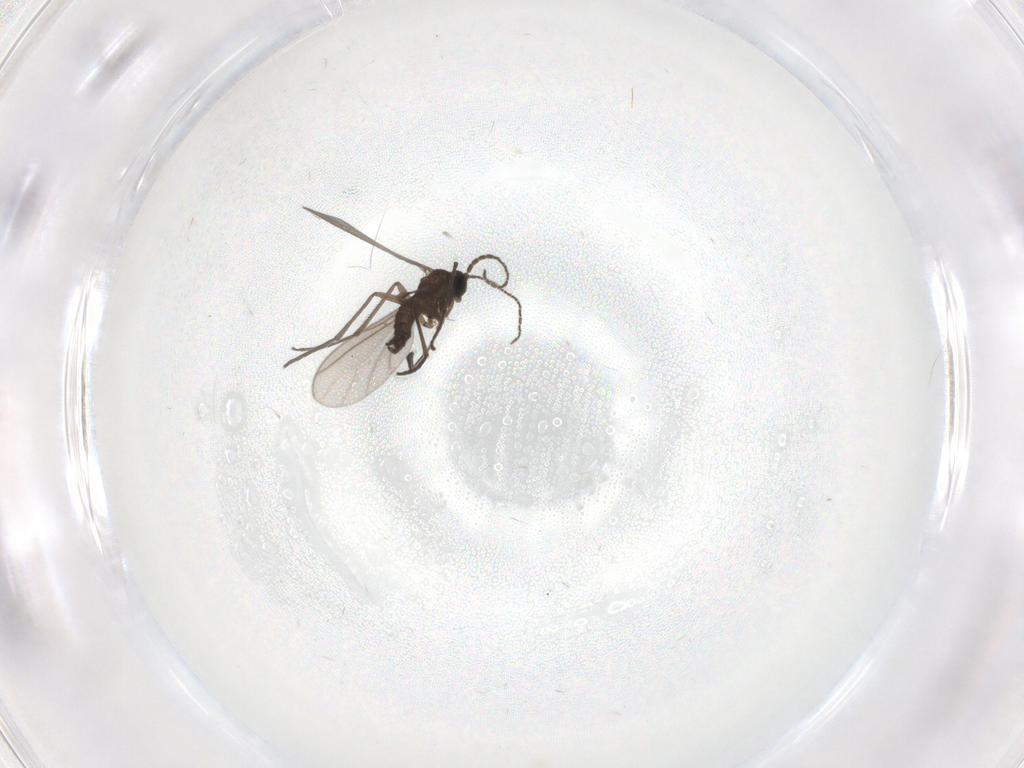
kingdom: Animalia
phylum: Arthropoda
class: Insecta
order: Diptera
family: Sciaridae
